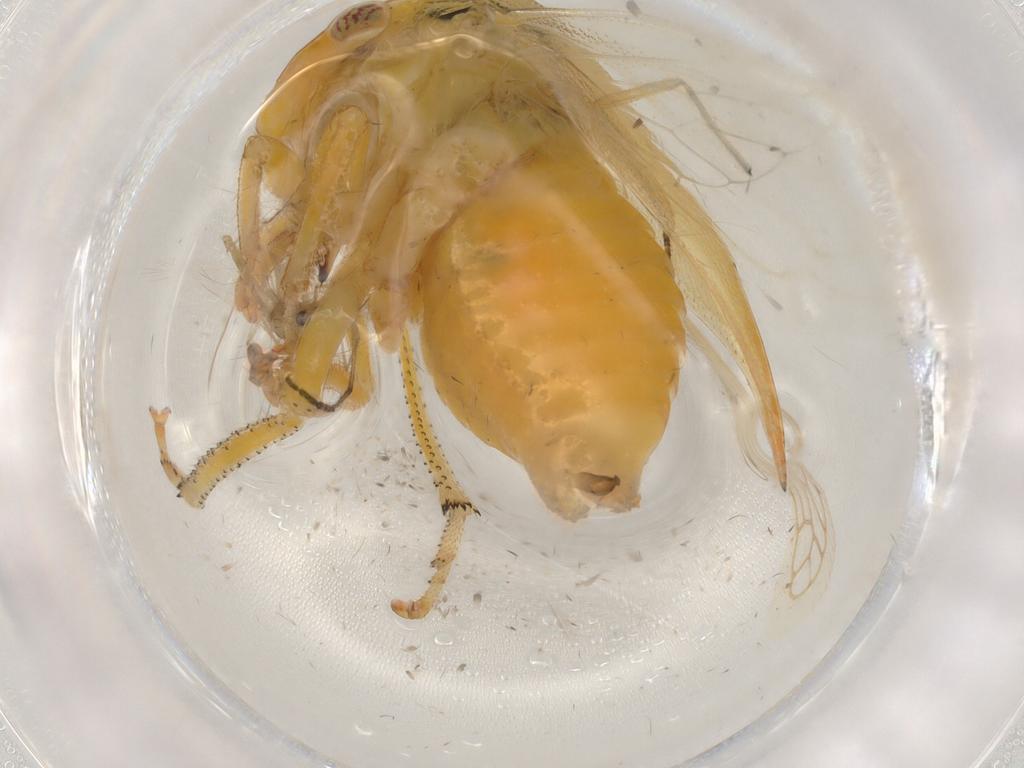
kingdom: Animalia
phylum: Arthropoda
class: Insecta
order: Hemiptera
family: Membracidae
